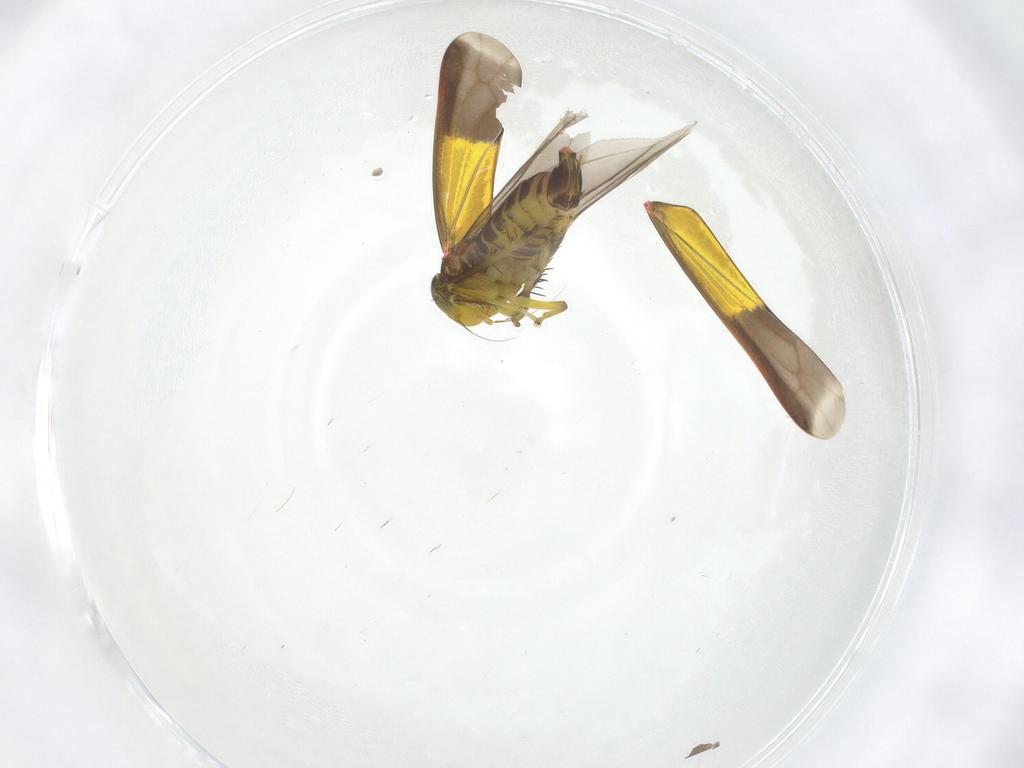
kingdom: Animalia
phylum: Arthropoda
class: Insecta
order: Hemiptera
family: Cicadellidae
